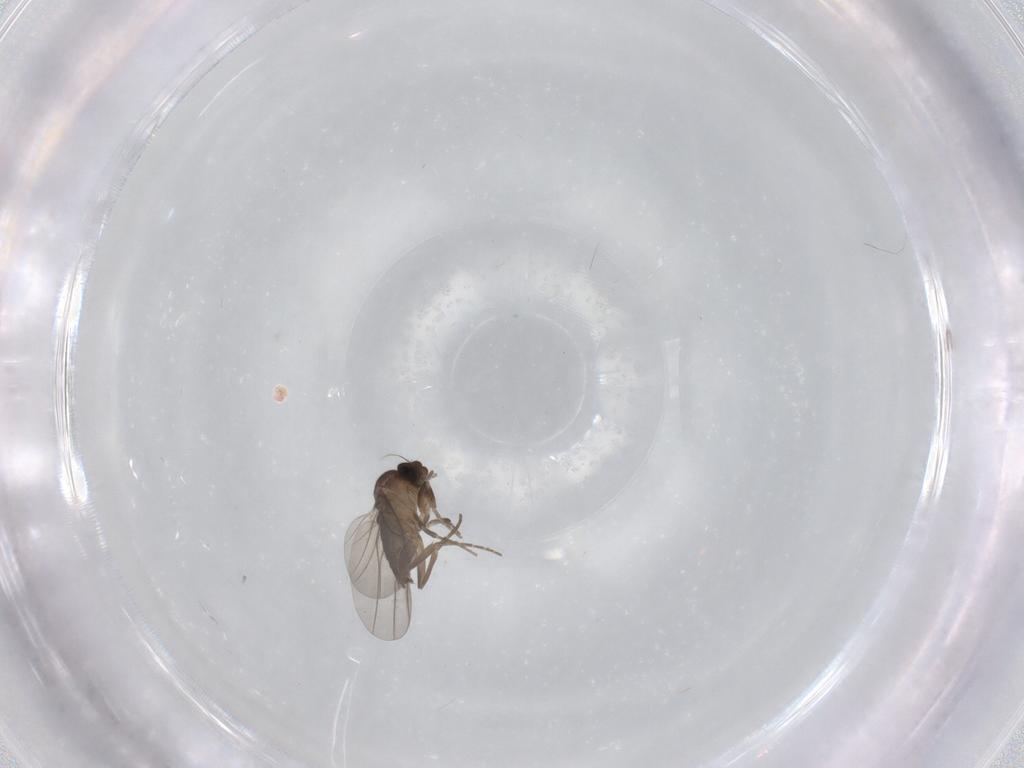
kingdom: Animalia
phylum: Arthropoda
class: Insecta
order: Diptera
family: Phoridae
